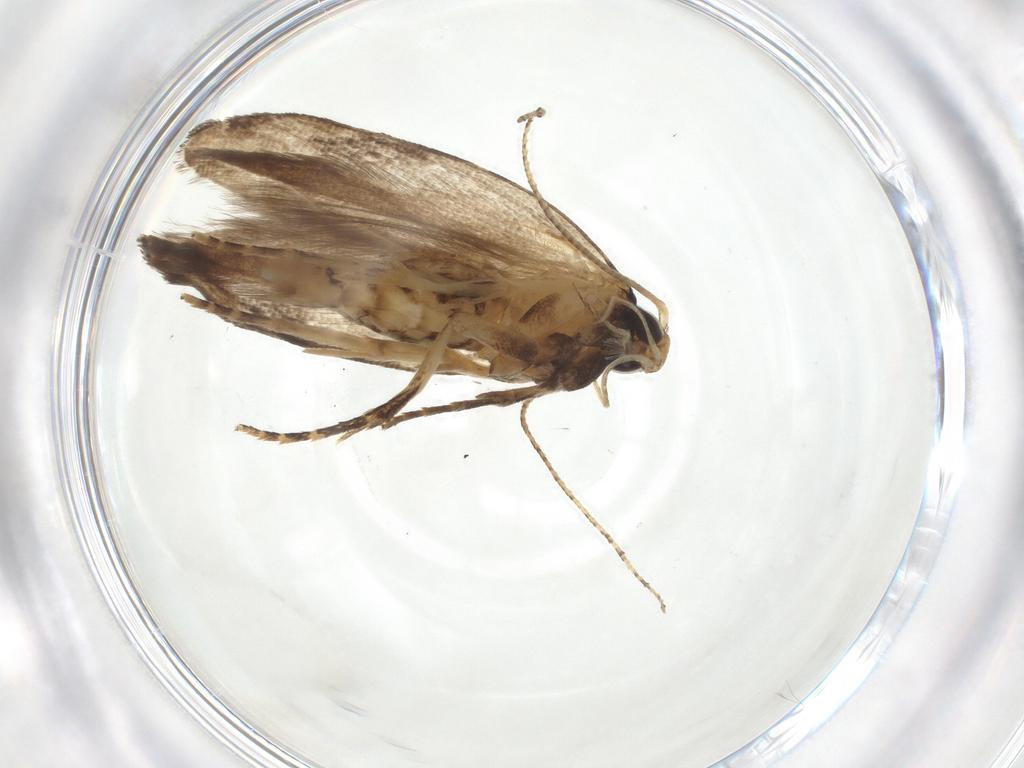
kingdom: Animalia
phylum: Arthropoda
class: Insecta
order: Lepidoptera
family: Gelechiidae
